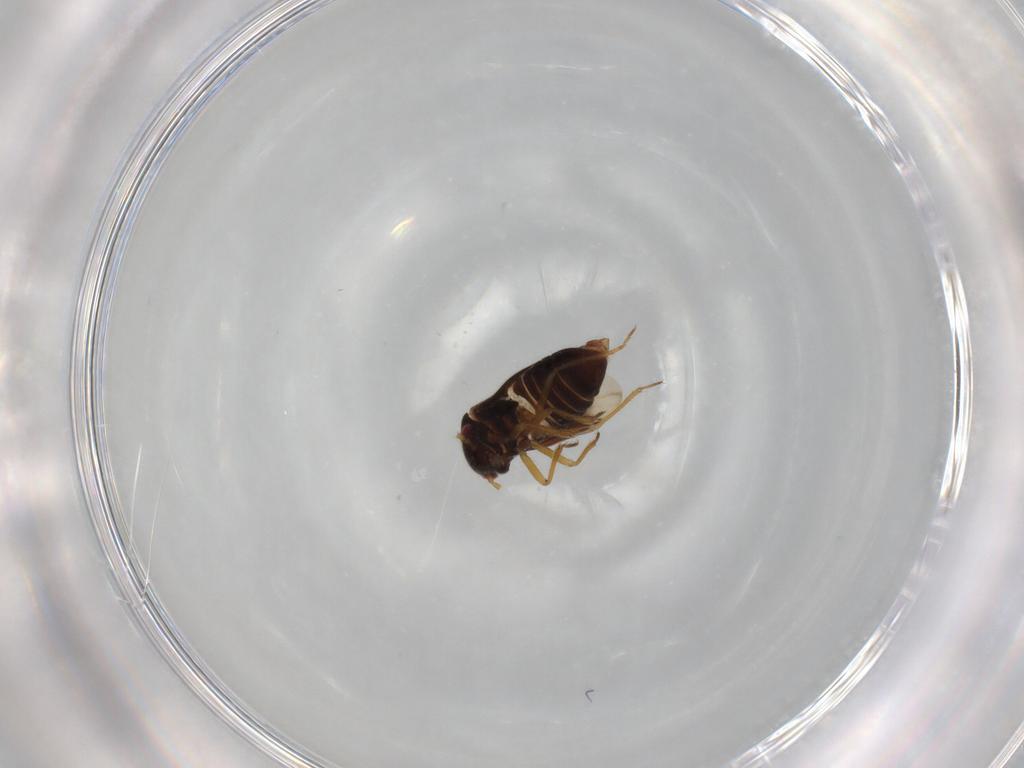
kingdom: Animalia
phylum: Arthropoda
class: Insecta
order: Hemiptera
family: Schizopteridae
